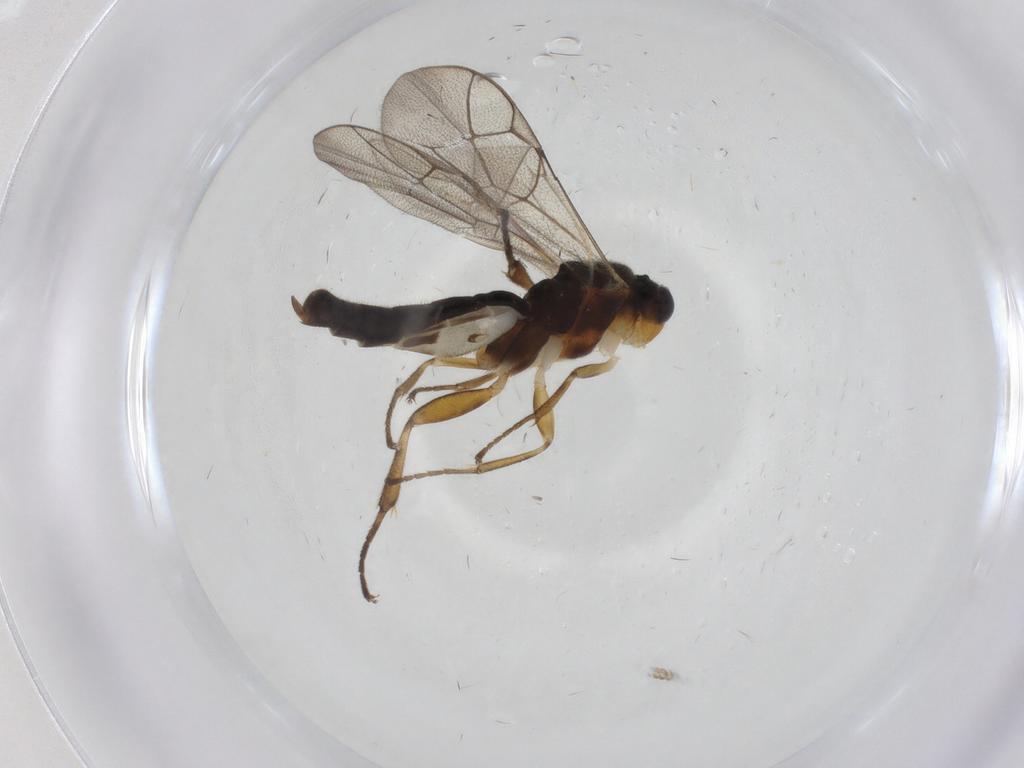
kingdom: Animalia
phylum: Arthropoda
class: Insecta
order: Hymenoptera
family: Ichneumonidae
